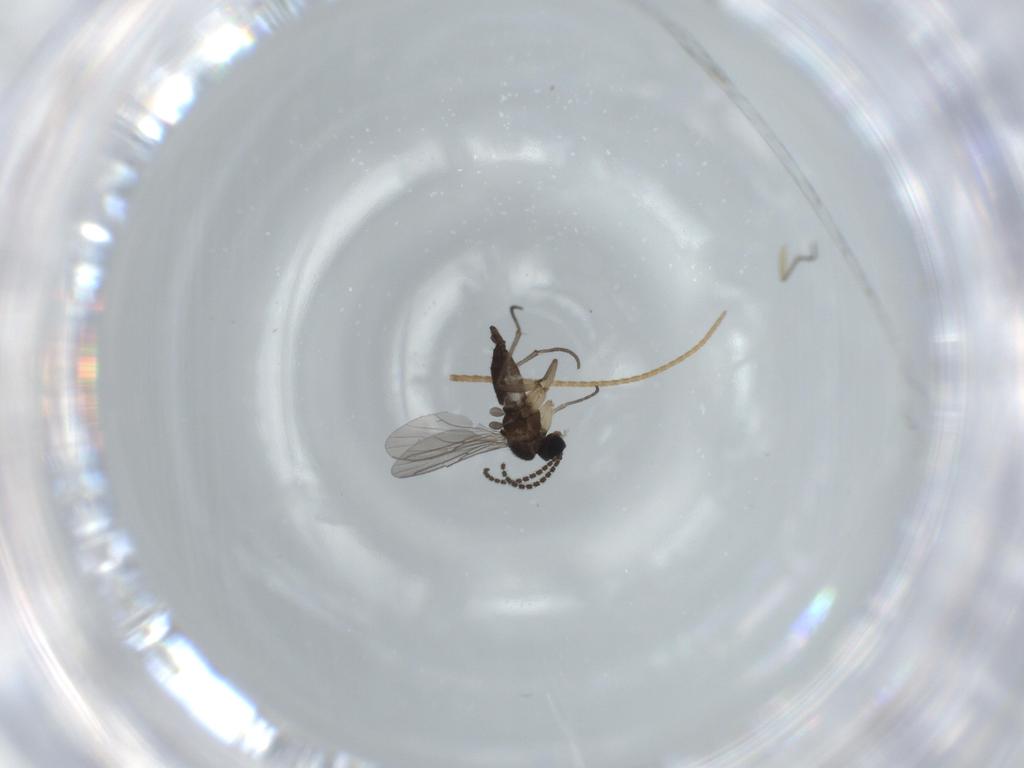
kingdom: Animalia
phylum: Arthropoda
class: Insecta
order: Diptera
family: Sciaridae
